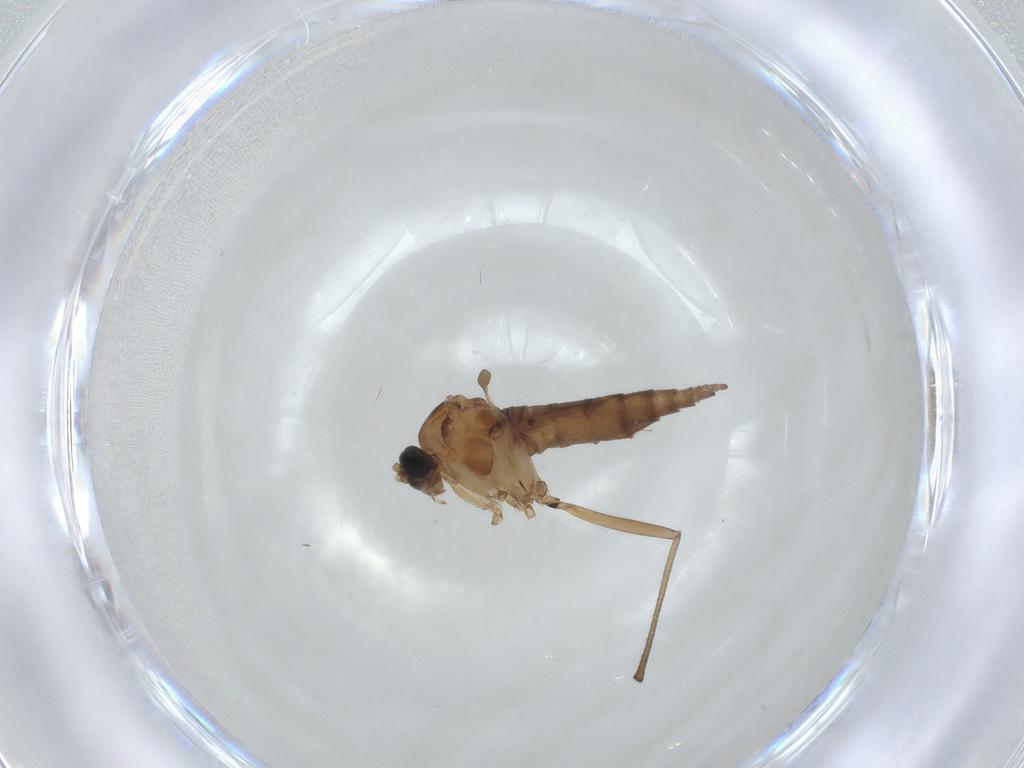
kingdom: Animalia
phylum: Arthropoda
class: Insecta
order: Diptera
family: Sciaridae
